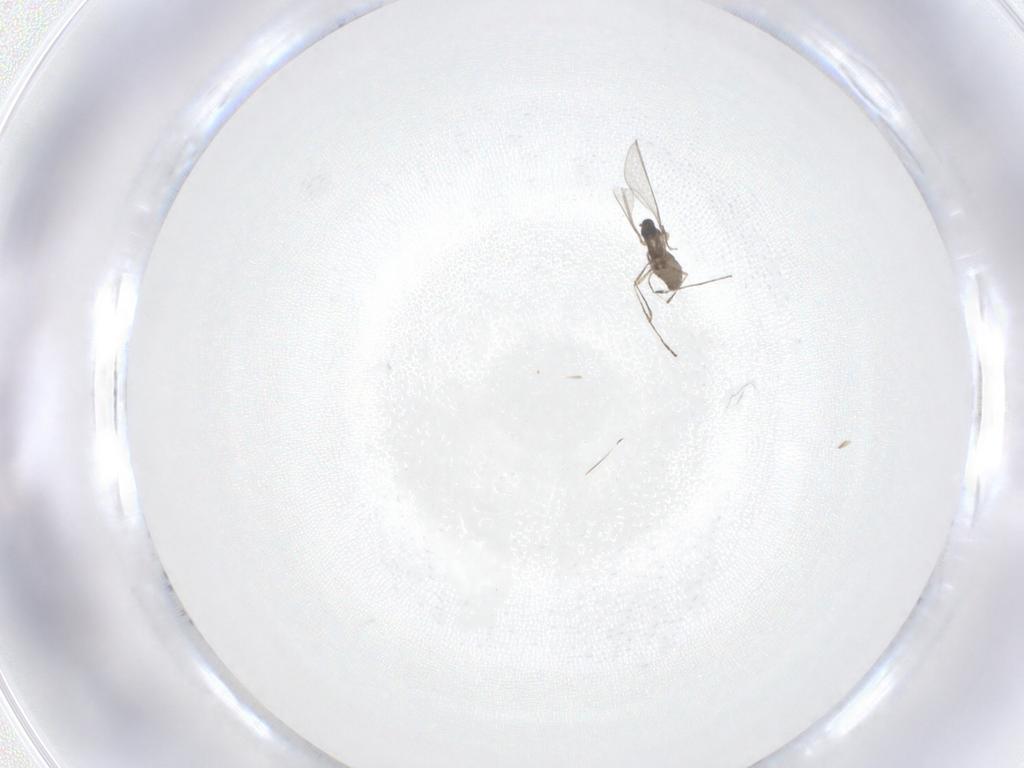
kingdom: Animalia
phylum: Arthropoda
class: Insecta
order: Diptera
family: Cecidomyiidae
